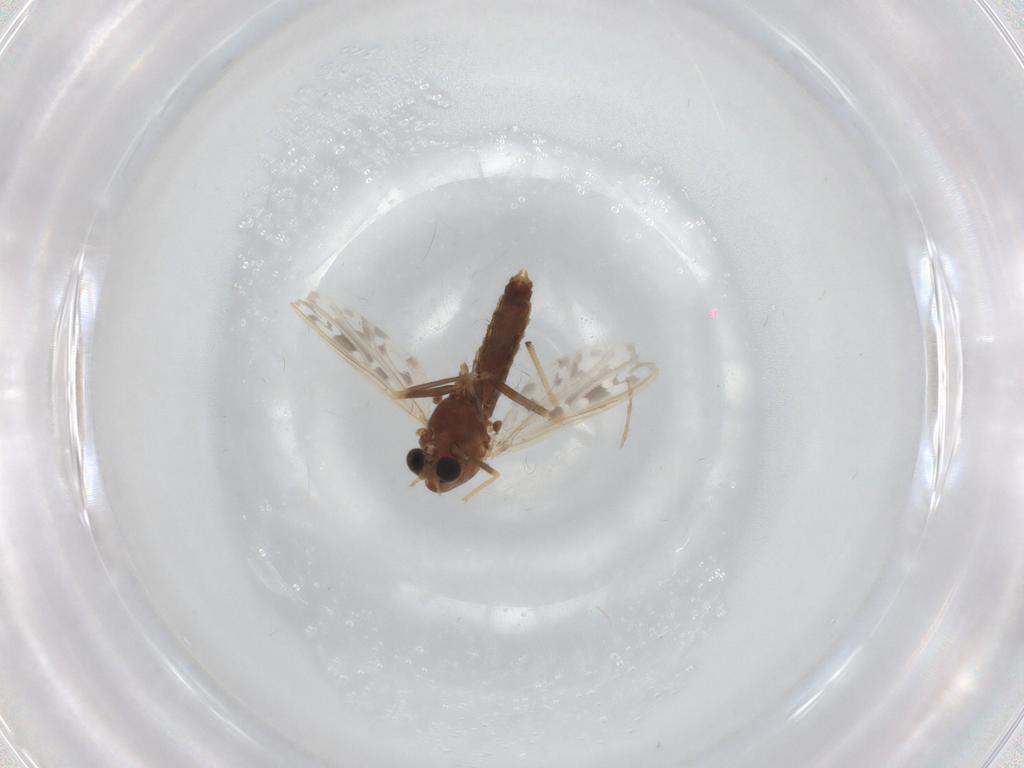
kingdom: Animalia
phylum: Arthropoda
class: Insecta
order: Diptera
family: Chironomidae
